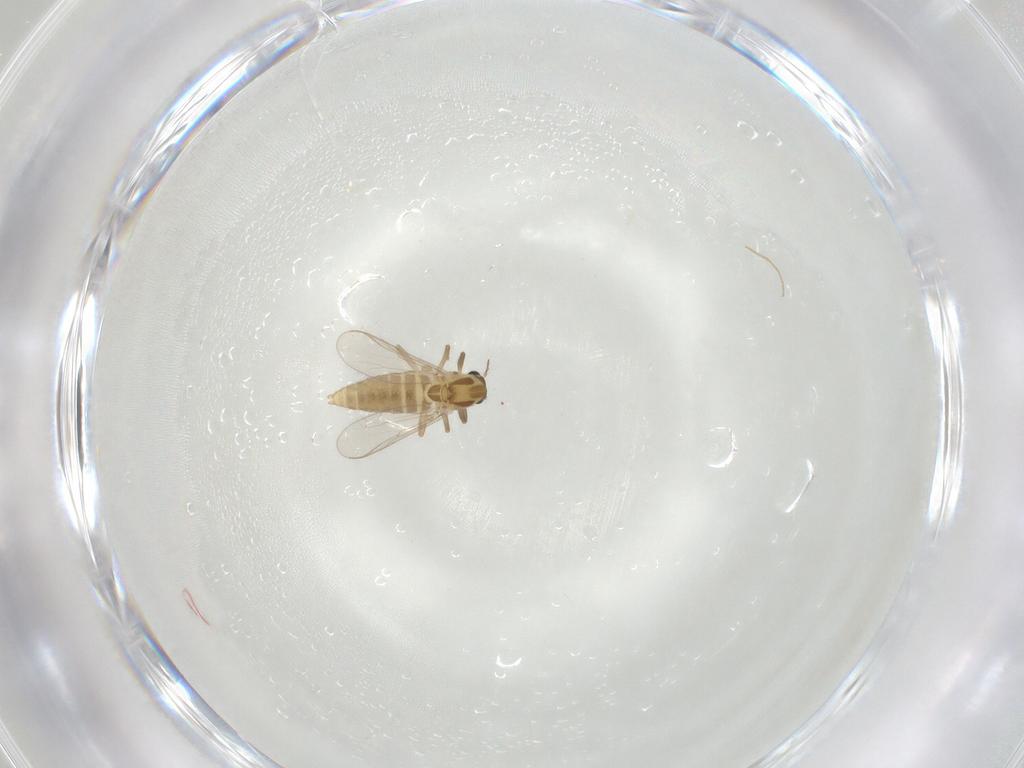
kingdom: Animalia
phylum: Arthropoda
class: Insecta
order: Diptera
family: Chironomidae
